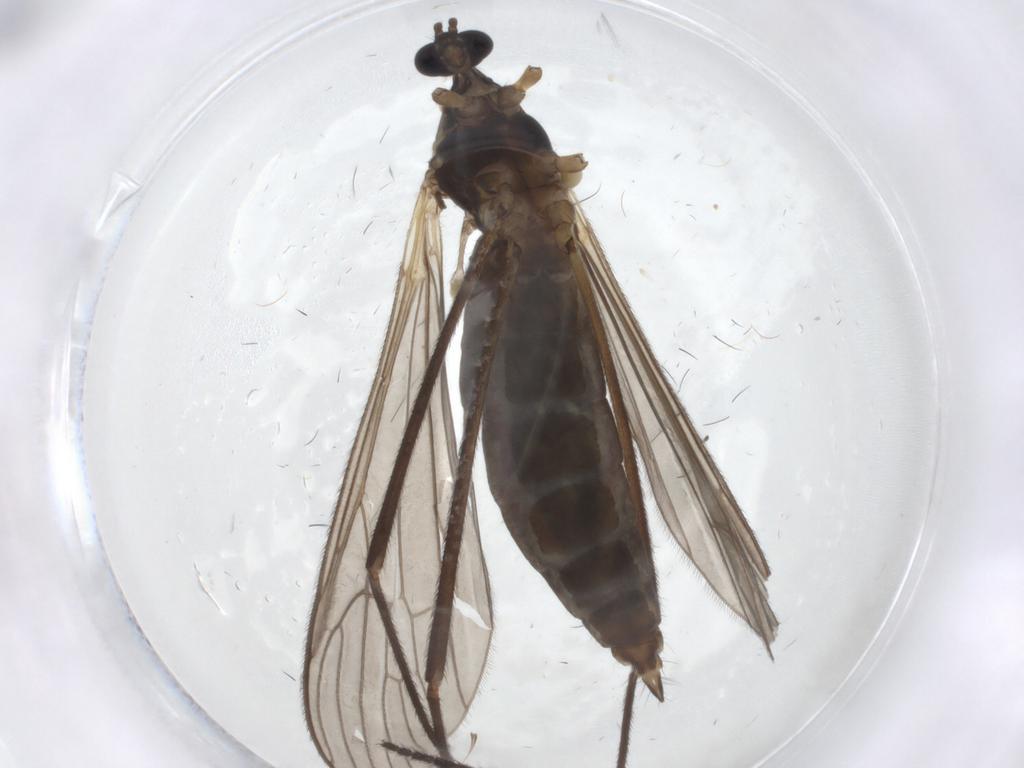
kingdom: Animalia
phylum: Arthropoda
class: Insecta
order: Diptera
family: Limoniidae
